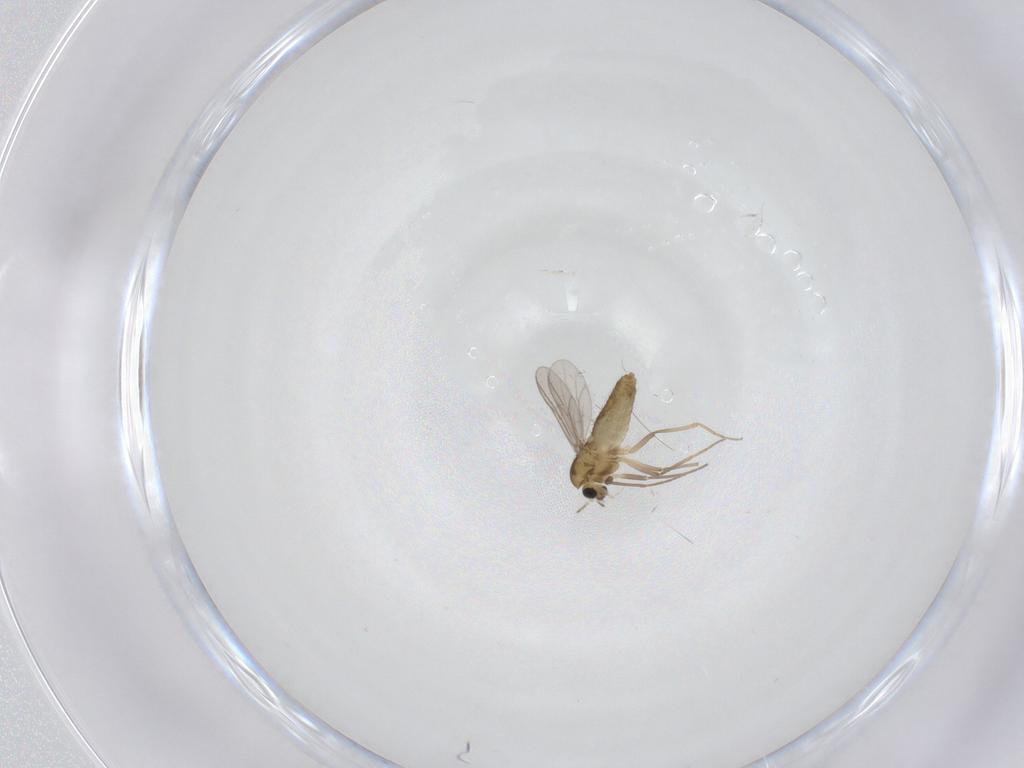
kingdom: Animalia
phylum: Arthropoda
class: Insecta
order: Diptera
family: Chironomidae
